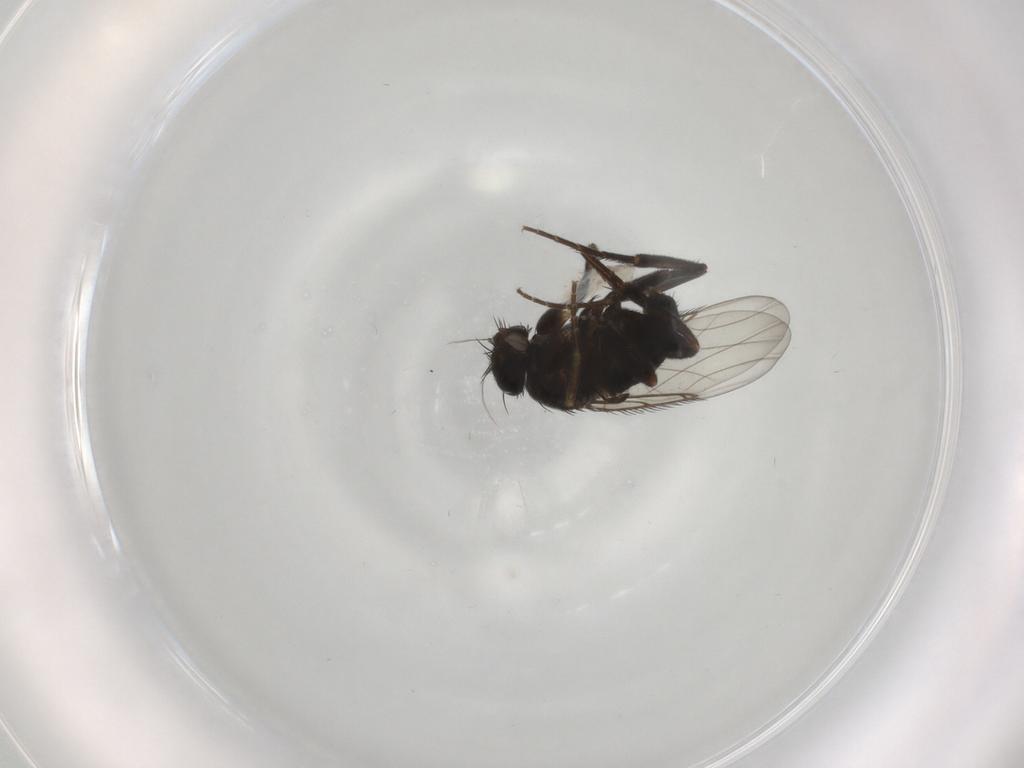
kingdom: Animalia
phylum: Arthropoda
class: Insecta
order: Diptera
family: Phoridae
